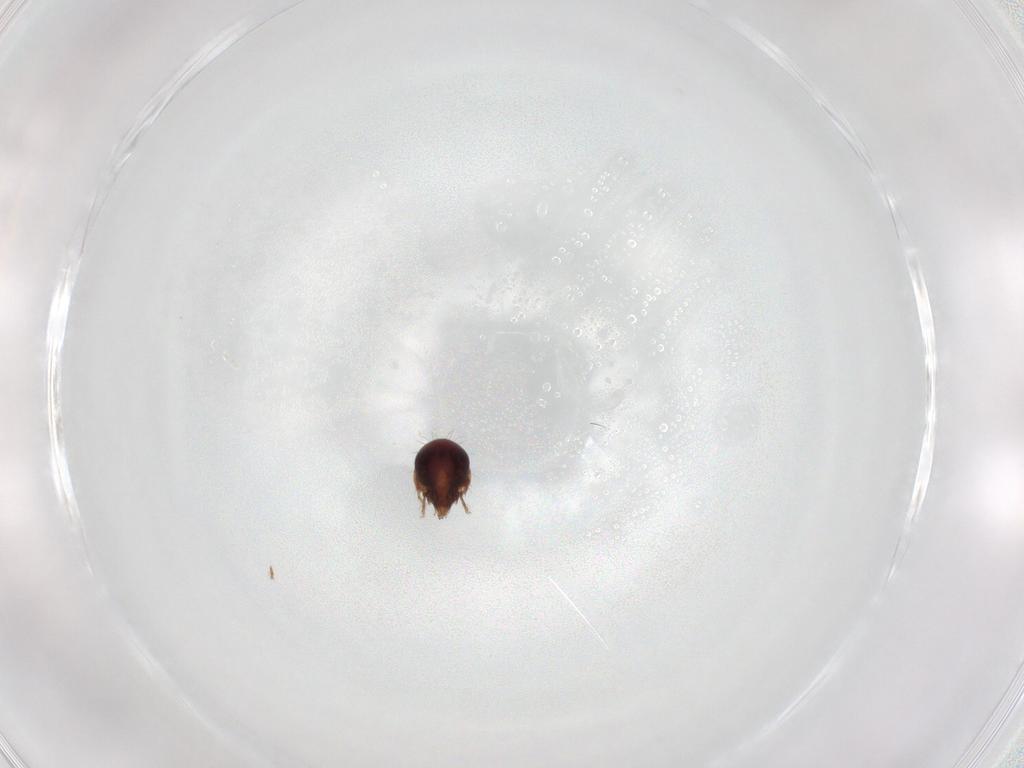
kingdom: Animalia
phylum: Arthropoda
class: Arachnida
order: Sarcoptiformes
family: Humerobatidae
